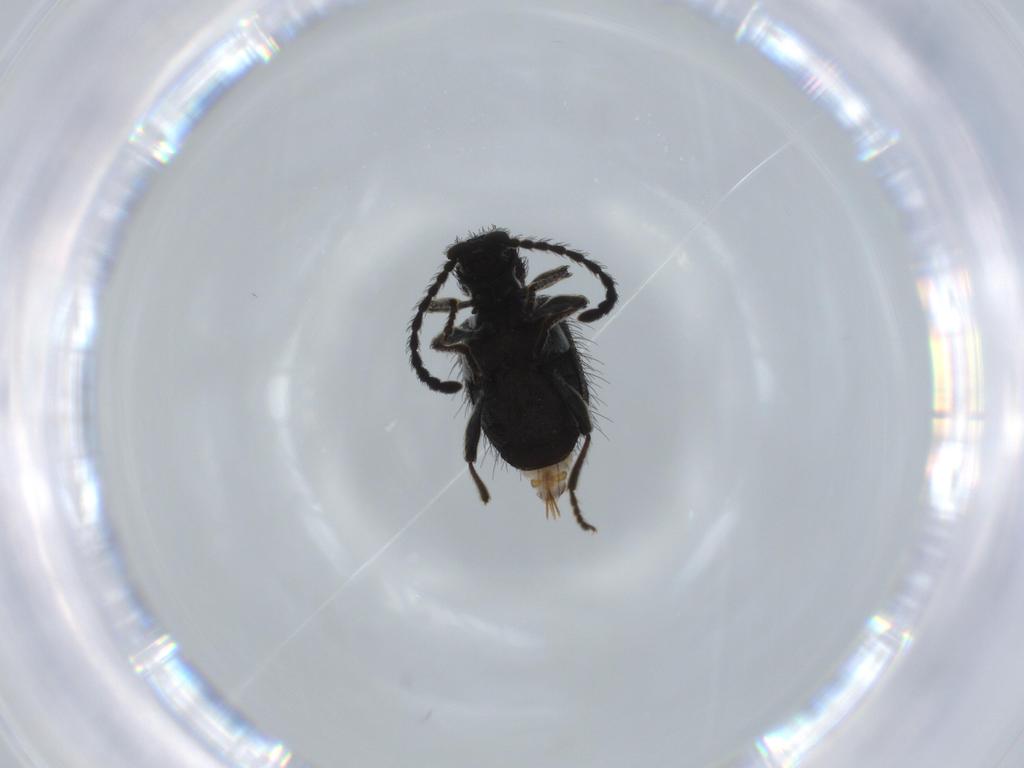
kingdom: Animalia
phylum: Arthropoda
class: Insecta
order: Coleoptera
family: Curculionidae
